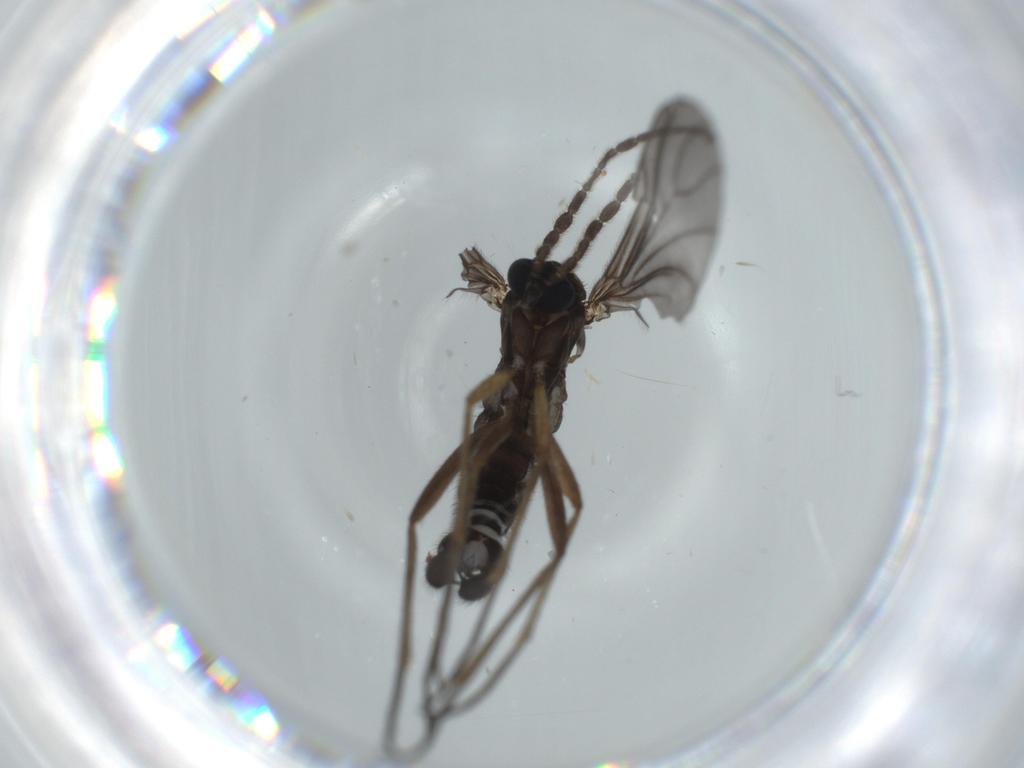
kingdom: Animalia
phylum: Arthropoda
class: Insecta
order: Diptera
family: Sciaridae
